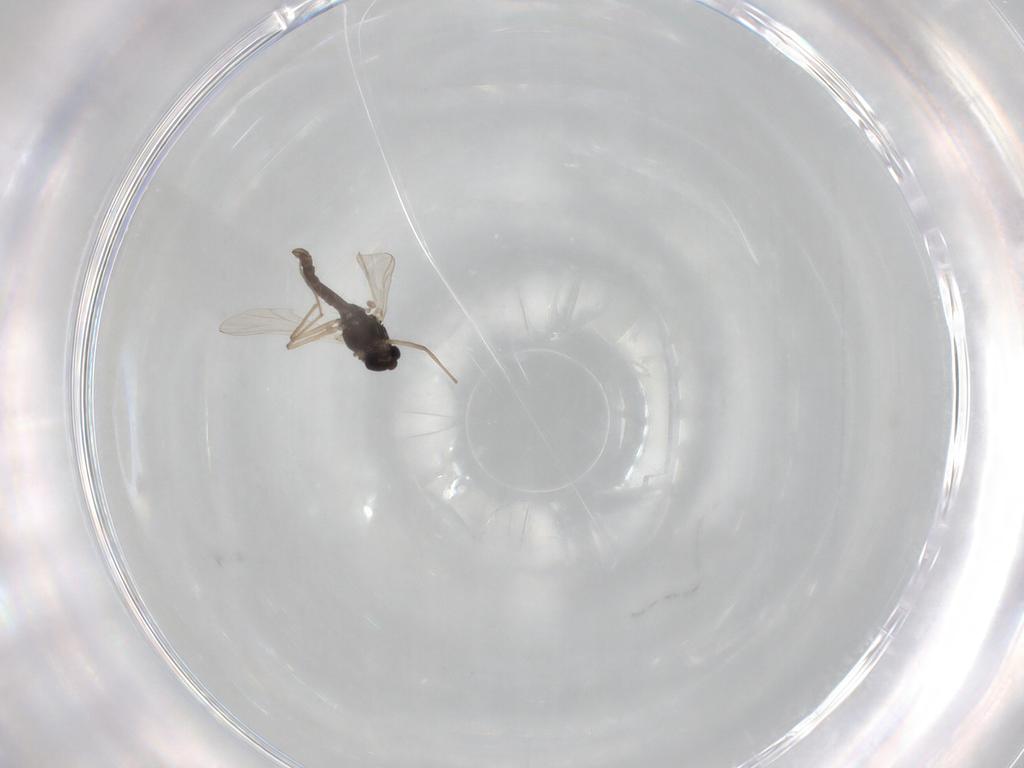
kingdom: Animalia
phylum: Arthropoda
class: Insecta
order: Diptera
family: Chironomidae
